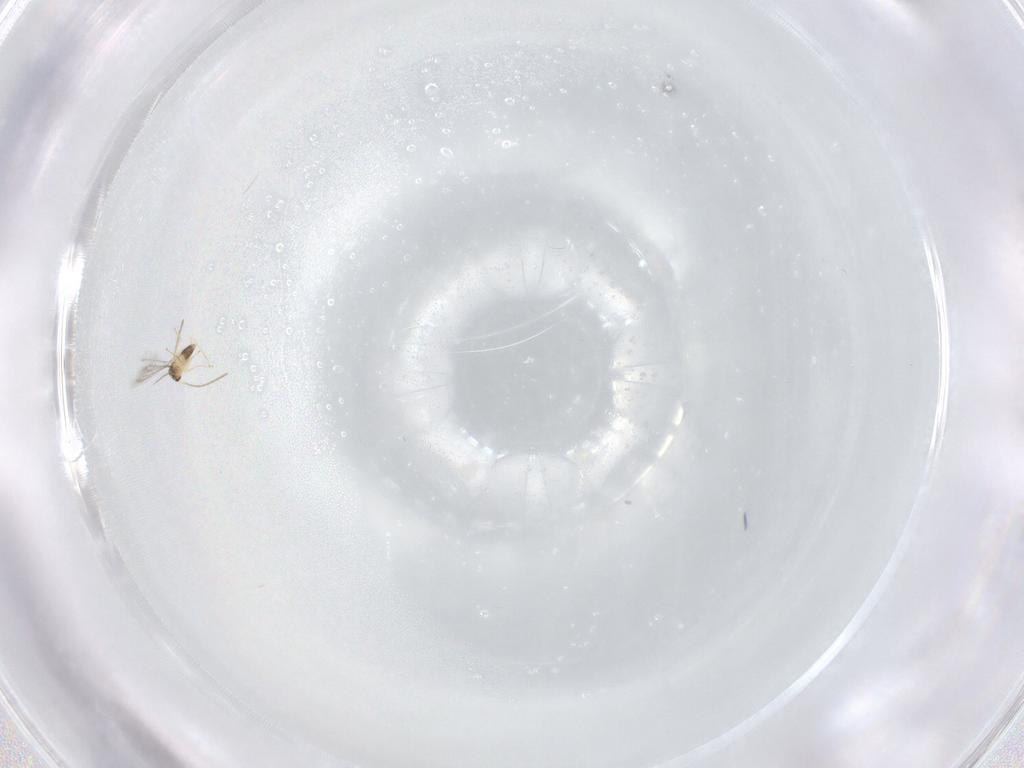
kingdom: Animalia
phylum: Arthropoda
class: Insecta
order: Hymenoptera
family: Mymaridae
